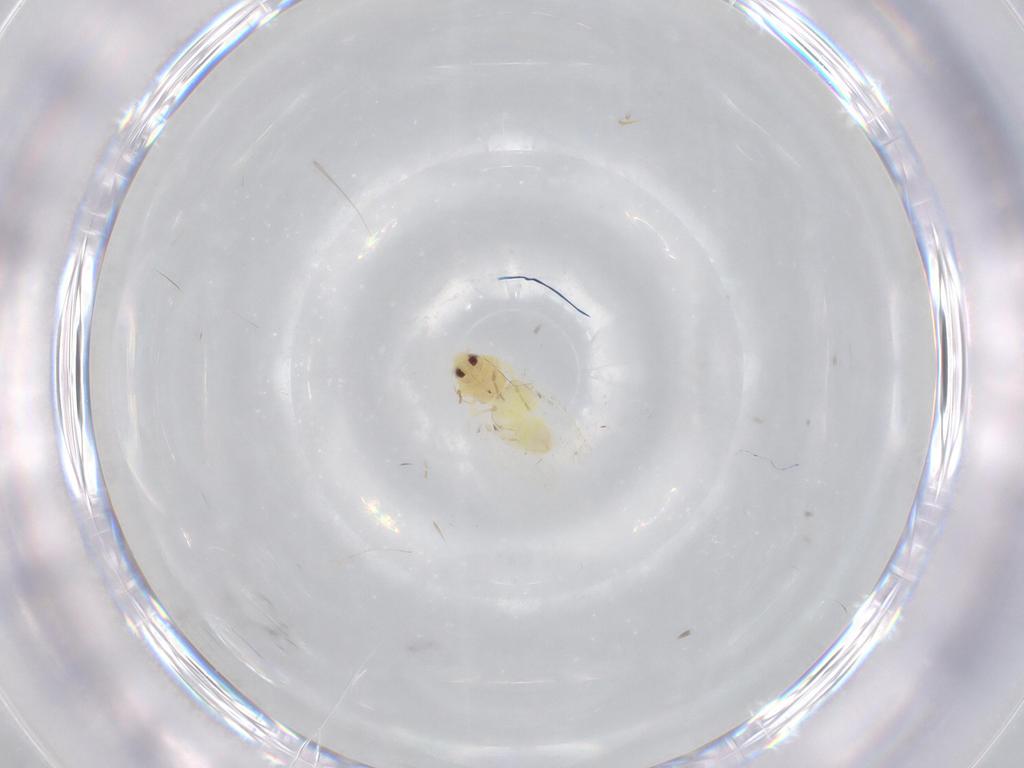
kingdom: Animalia
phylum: Arthropoda
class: Insecta
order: Hemiptera
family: Aleyrodidae
